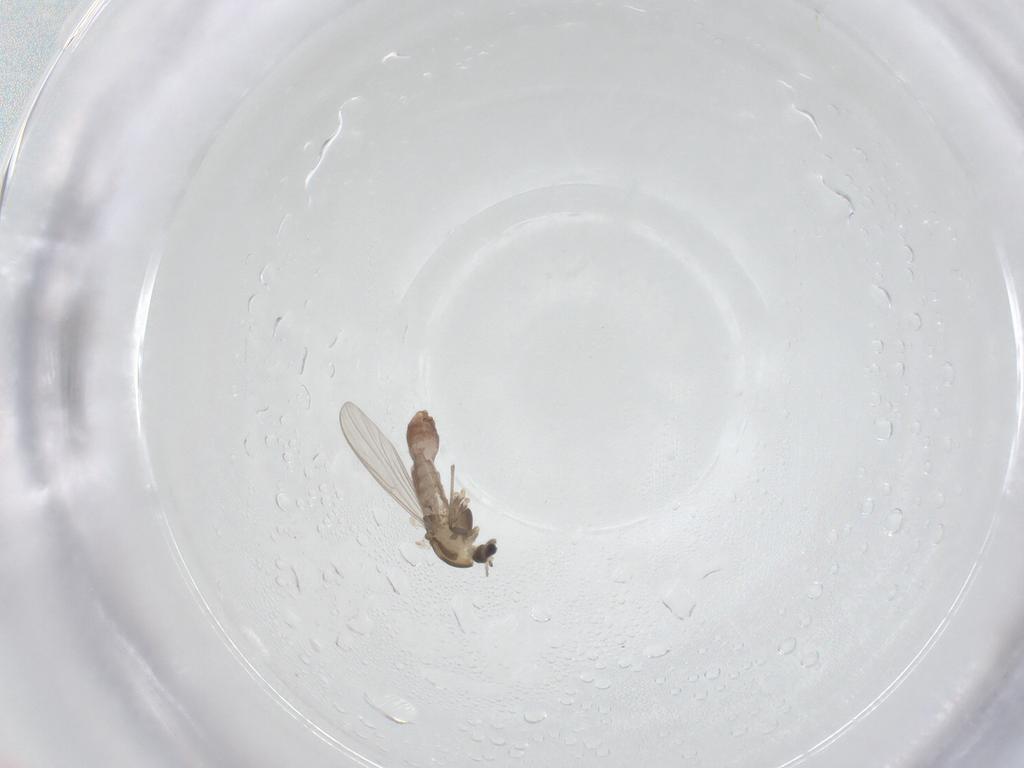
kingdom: Animalia
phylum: Arthropoda
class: Insecta
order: Diptera
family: Chironomidae
